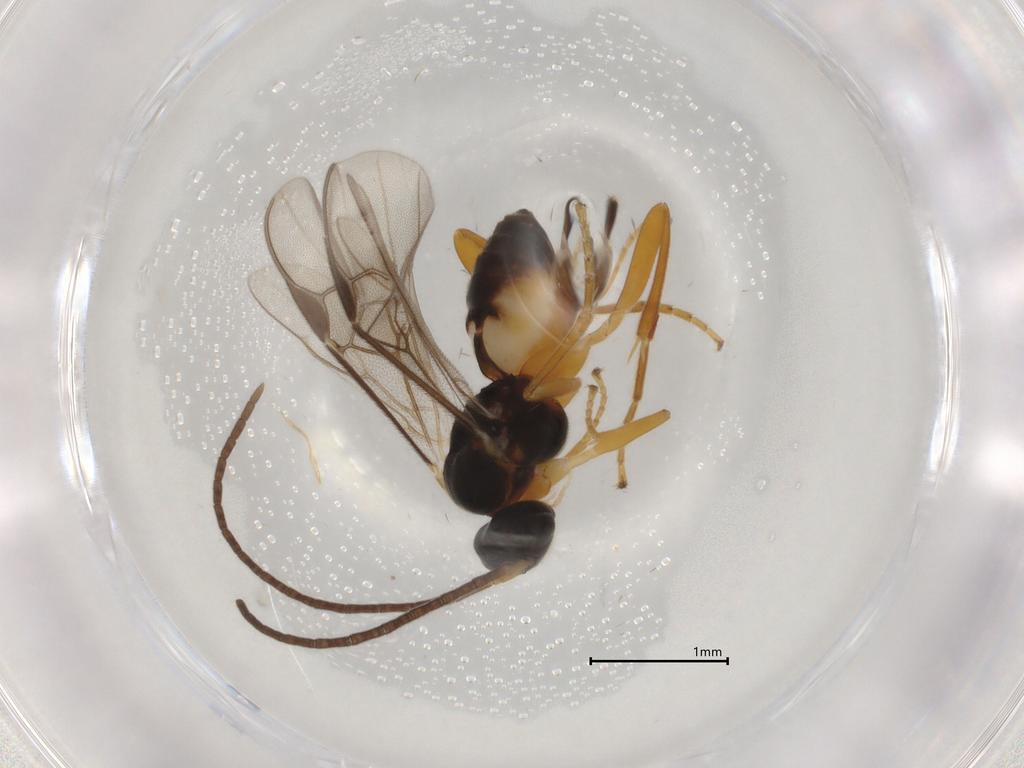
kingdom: Animalia
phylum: Arthropoda
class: Insecta
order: Hymenoptera
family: Braconidae
